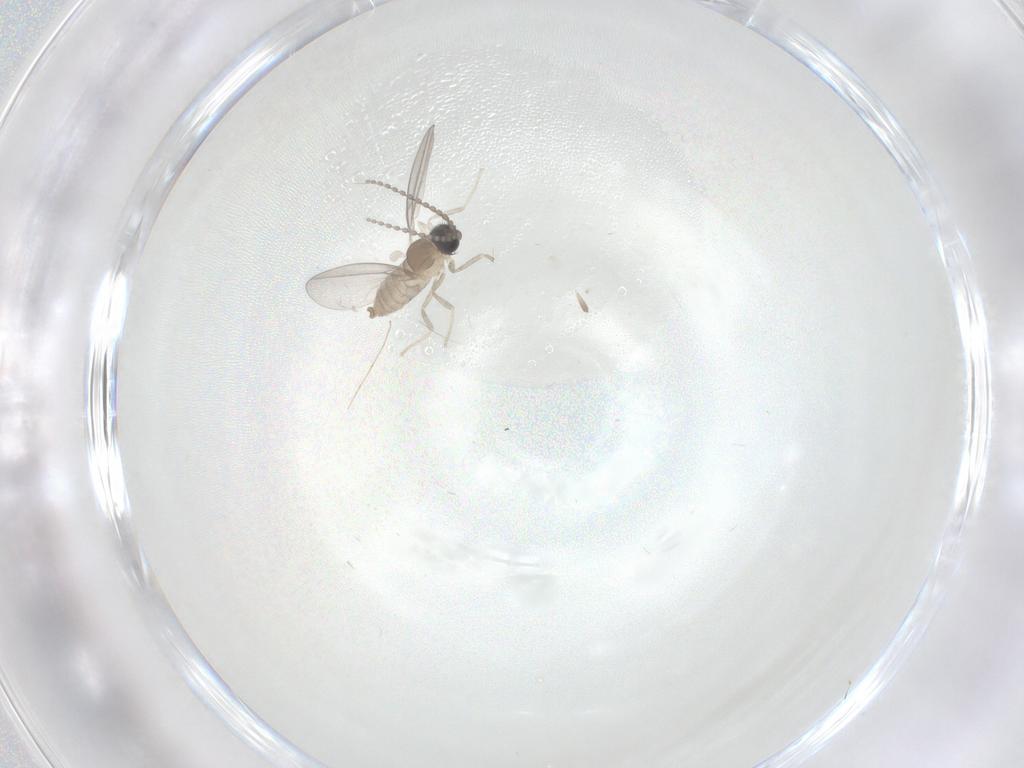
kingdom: Animalia
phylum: Arthropoda
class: Insecta
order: Diptera
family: Cecidomyiidae
